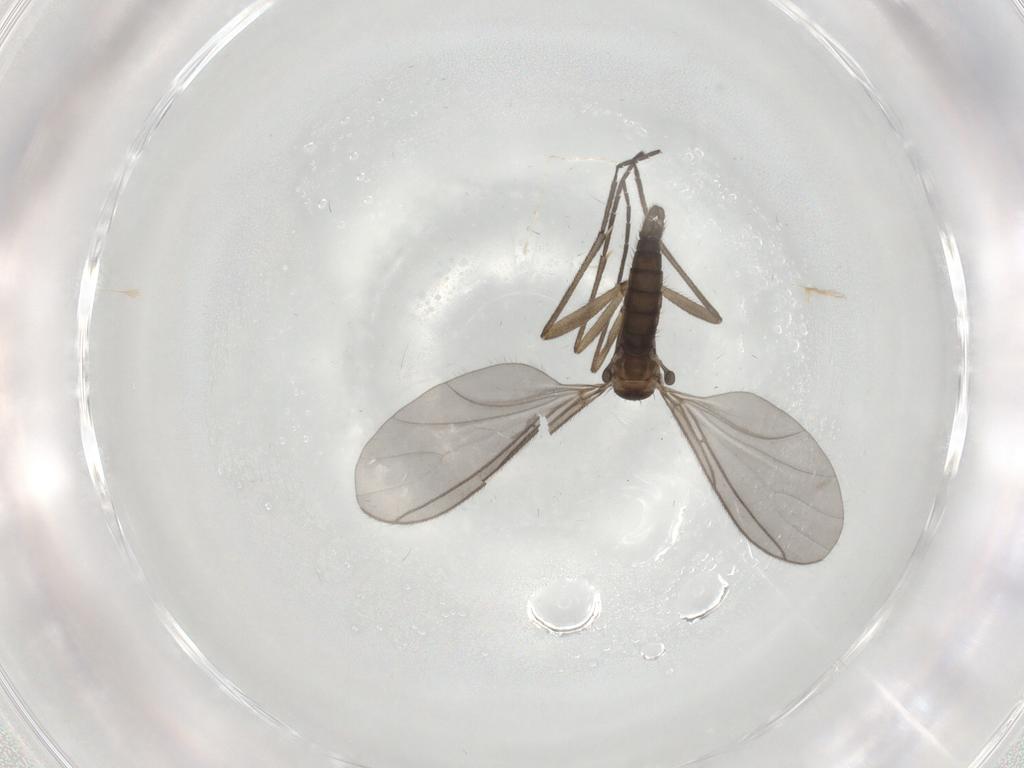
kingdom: Animalia
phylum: Arthropoda
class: Insecta
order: Diptera
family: Sciaridae
